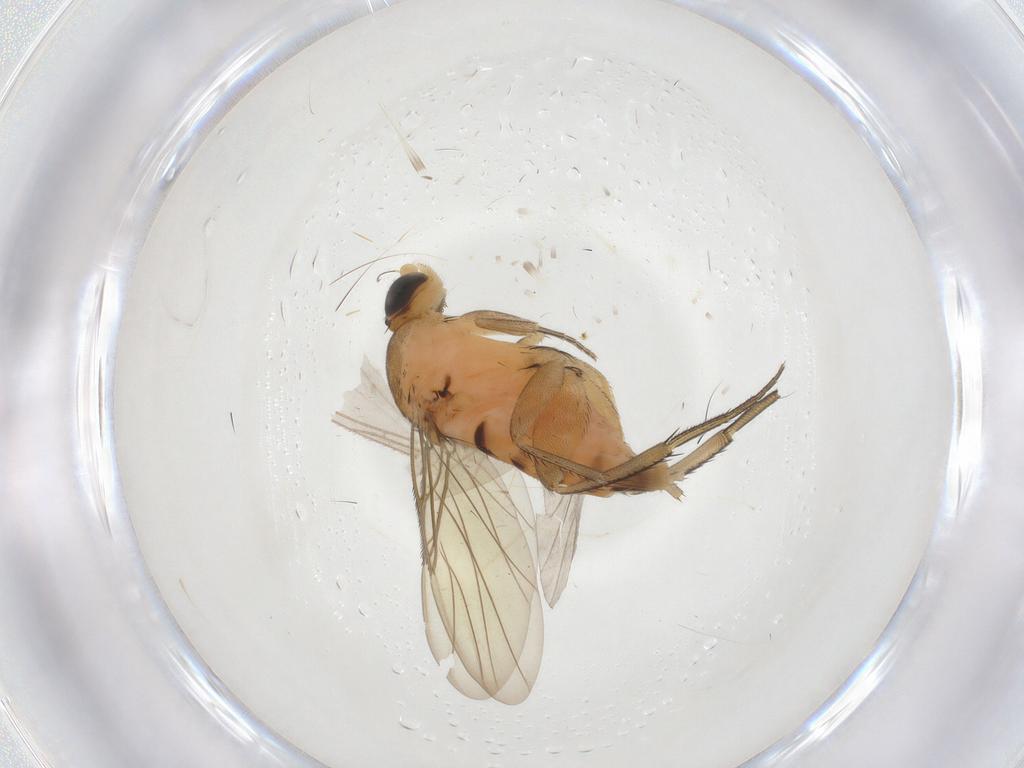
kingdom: Animalia
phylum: Arthropoda
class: Insecta
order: Diptera
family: Phoridae
